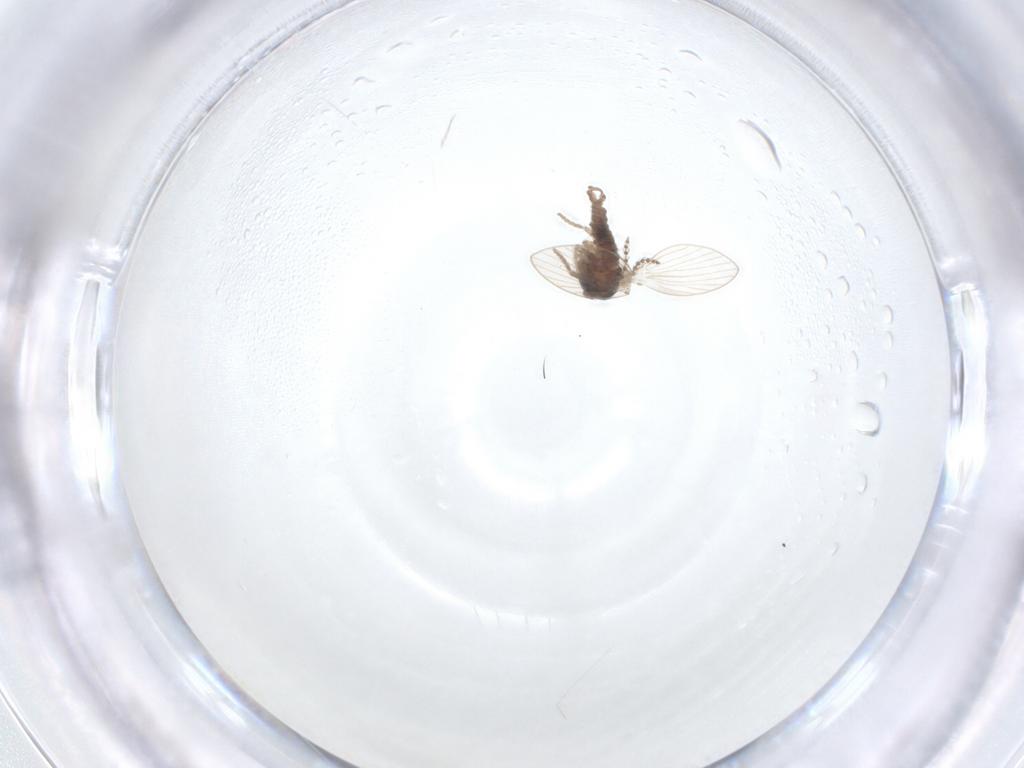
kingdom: Animalia
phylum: Arthropoda
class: Insecta
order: Diptera
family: Psychodidae
